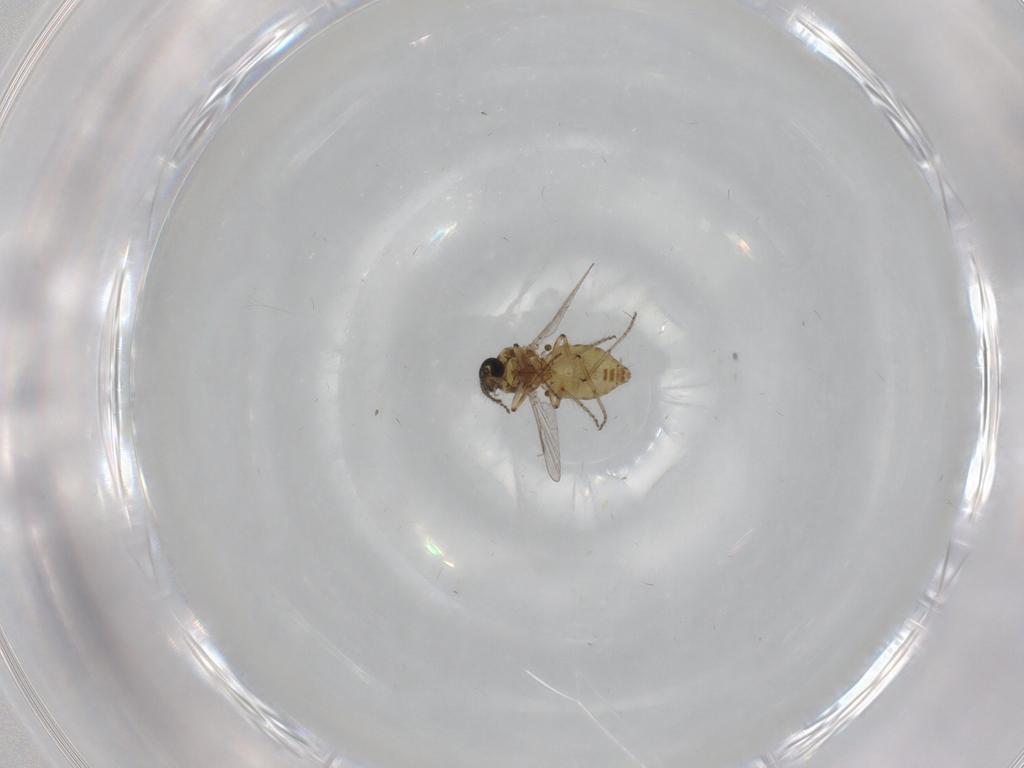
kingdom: Animalia
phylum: Arthropoda
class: Insecta
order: Diptera
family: Ceratopogonidae
